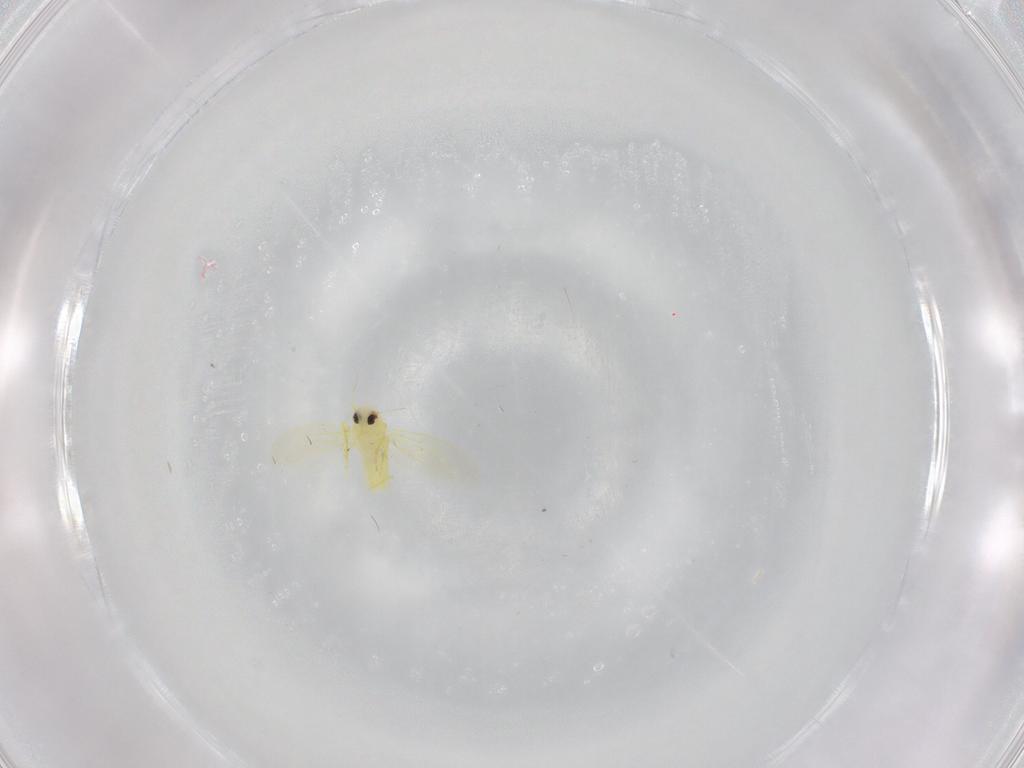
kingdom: Animalia
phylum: Arthropoda
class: Insecta
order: Hemiptera
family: Aleyrodidae
